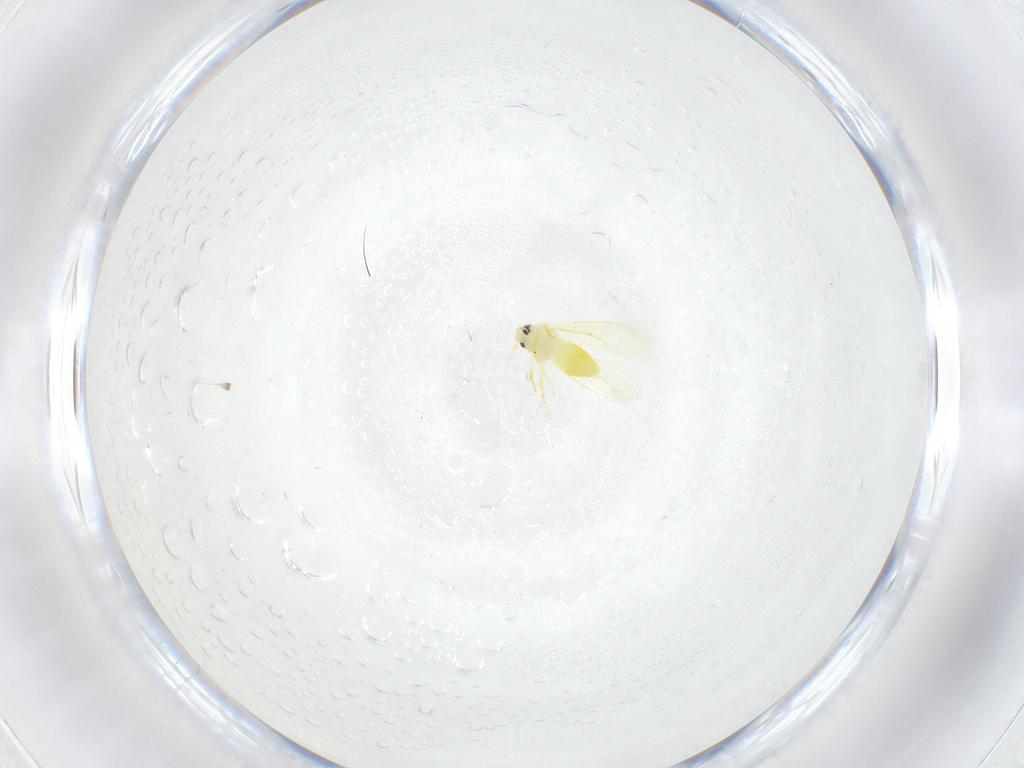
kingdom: Animalia
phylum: Arthropoda
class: Insecta
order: Hemiptera
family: Aleyrodidae
